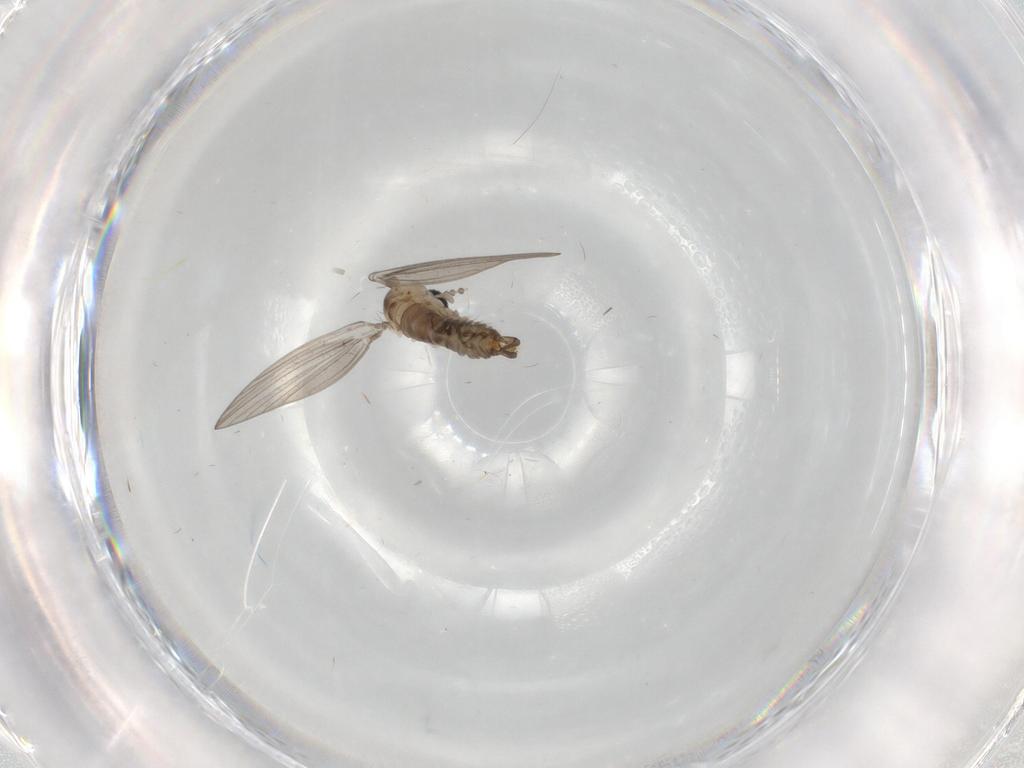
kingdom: Animalia
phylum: Arthropoda
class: Insecta
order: Diptera
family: Psychodidae
